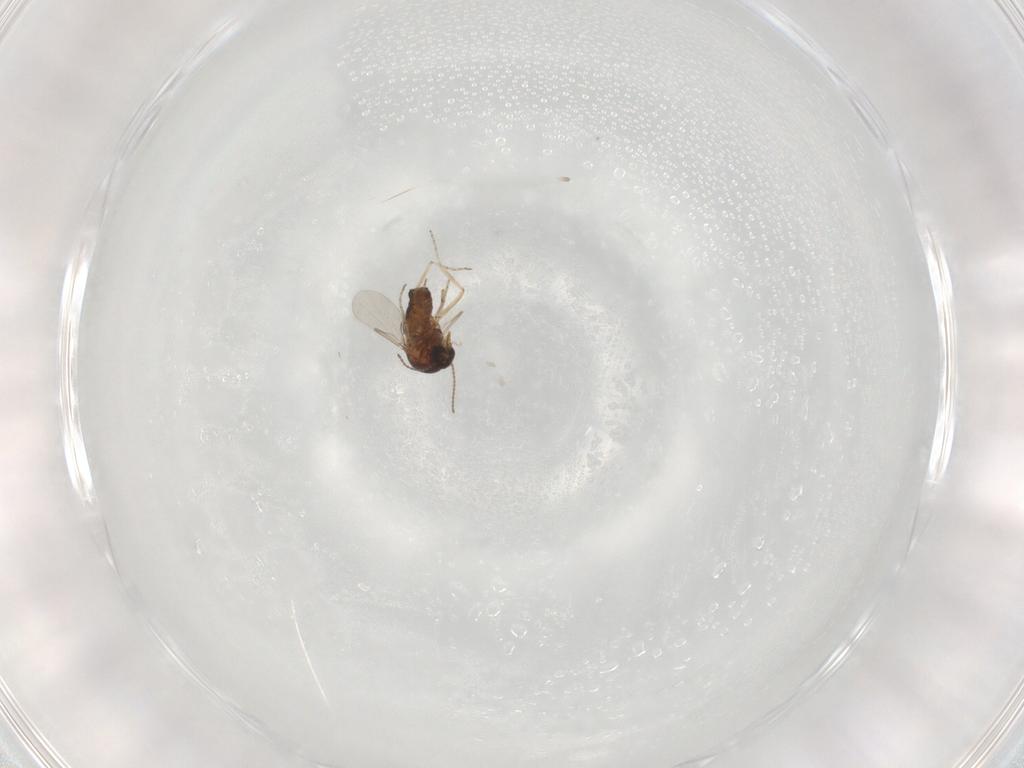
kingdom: Animalia
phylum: Arthropoda
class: Insecta
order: Diptera
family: Ceratopogonidae
